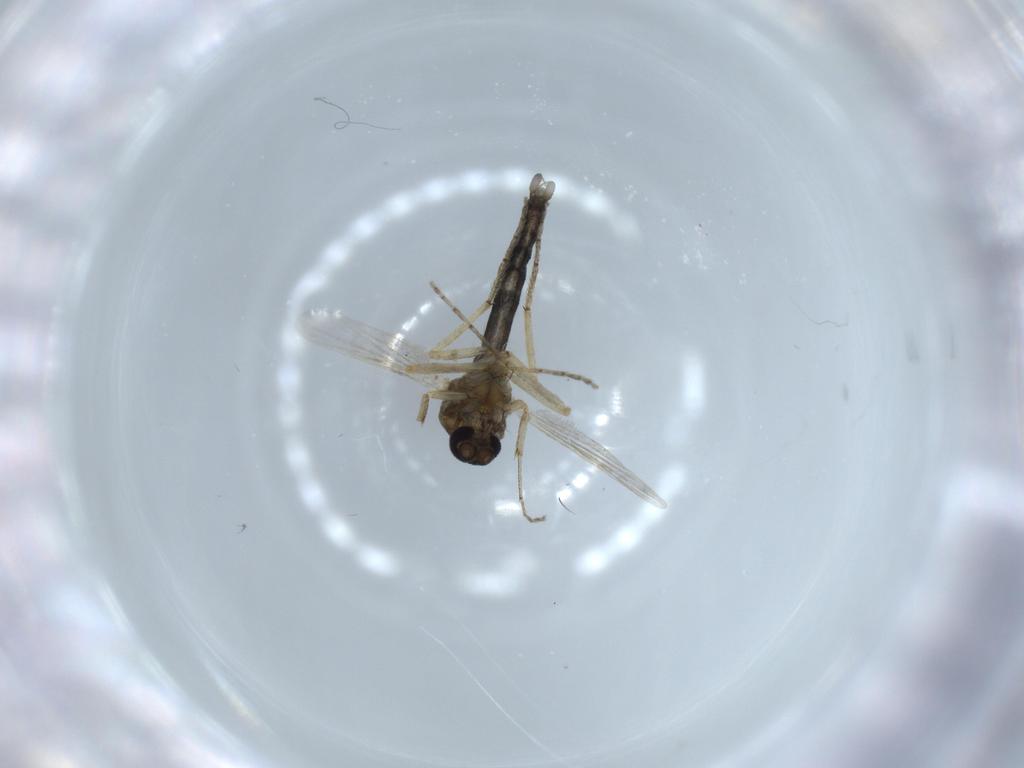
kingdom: Animalia
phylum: Arthropoda
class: Insecta
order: Diptera
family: Ceratopogonidae
